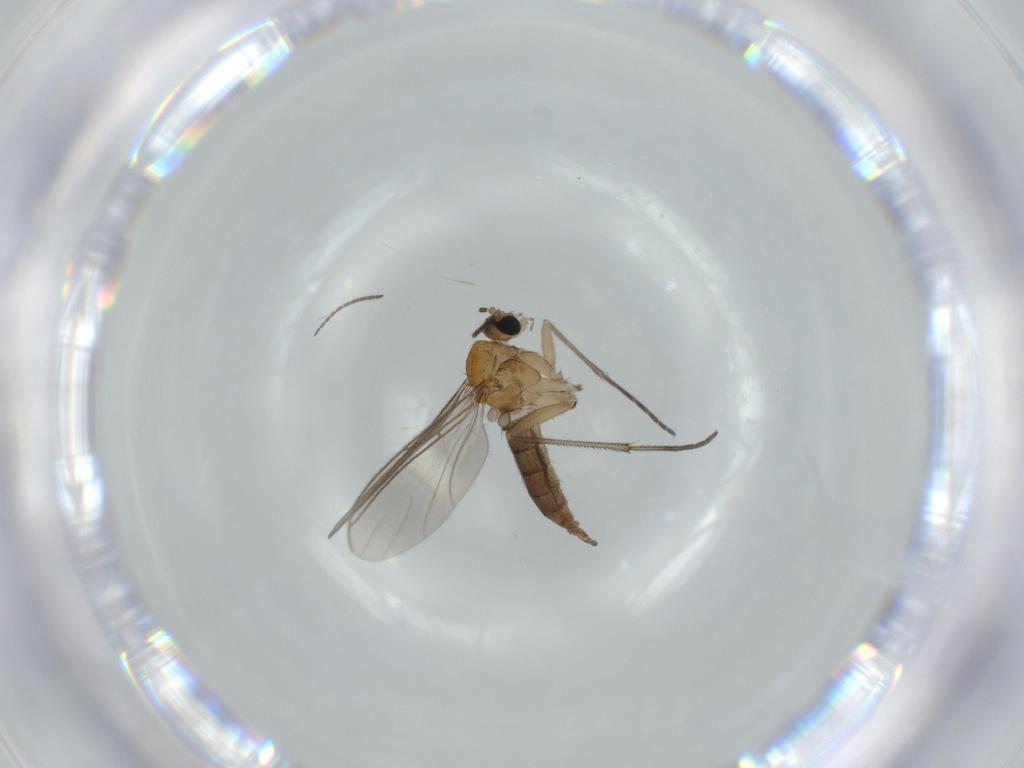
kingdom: Animalia
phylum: Arthropoda
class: Insecta
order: Diptera
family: Sciaridae
